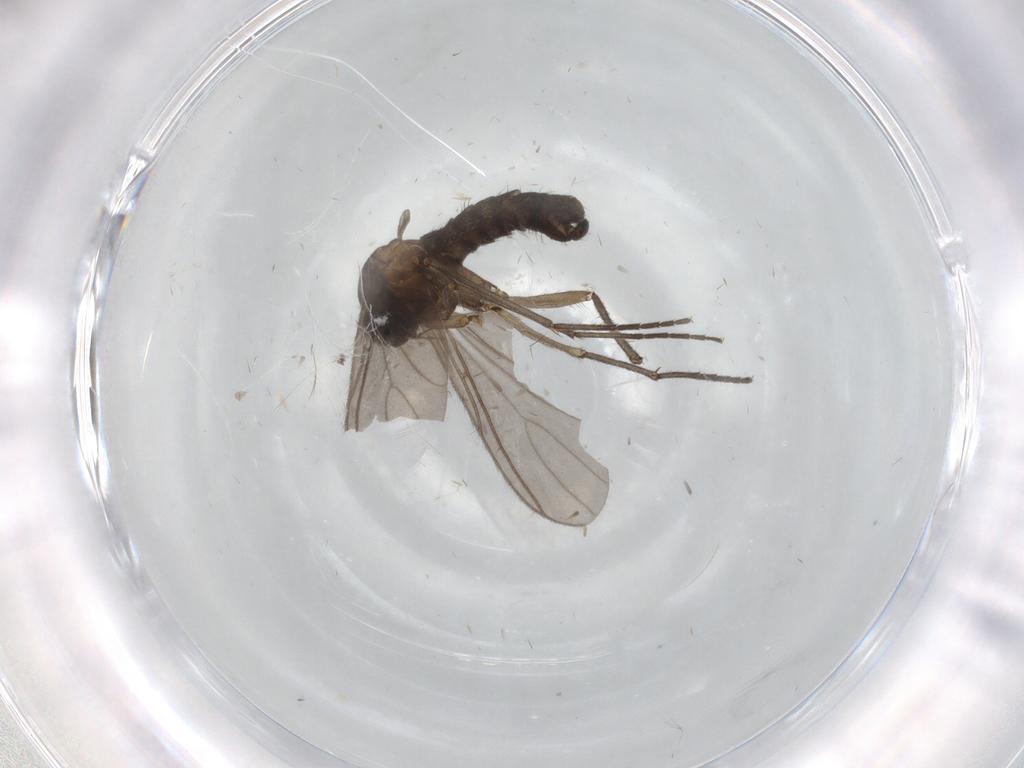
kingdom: Animalia
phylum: Arthropoda
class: Insecta
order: Diptera
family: Sciaridae
